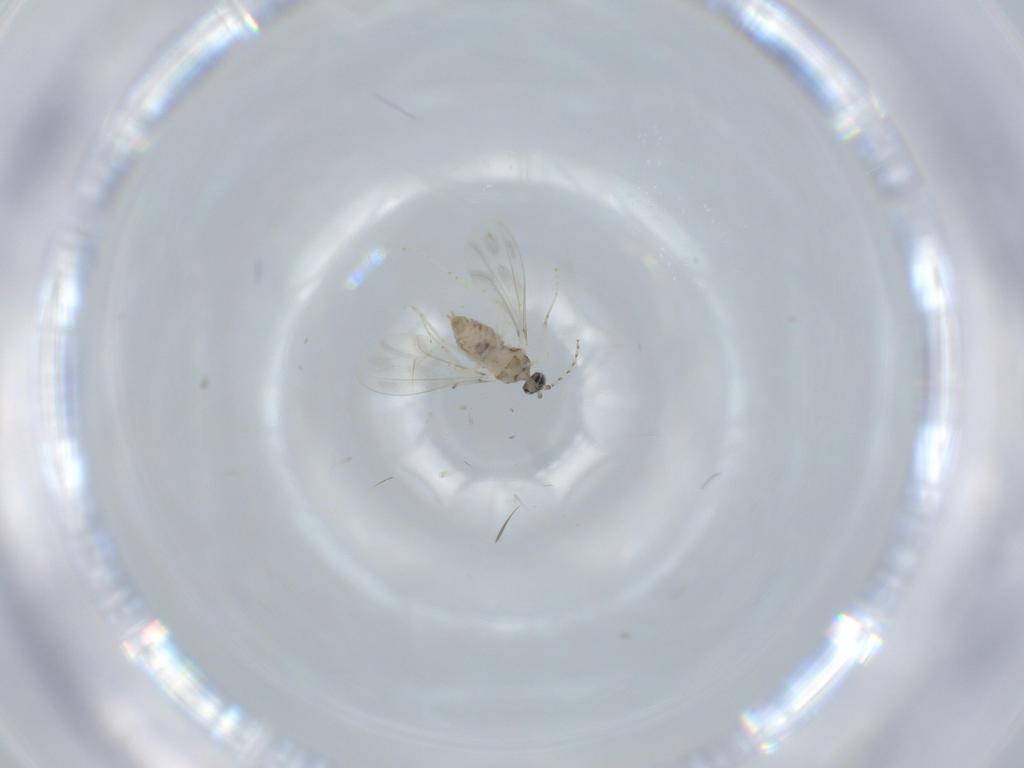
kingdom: Animalia
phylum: Arthropoda
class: Insecta
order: Diptera
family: Cecidomyiidae
